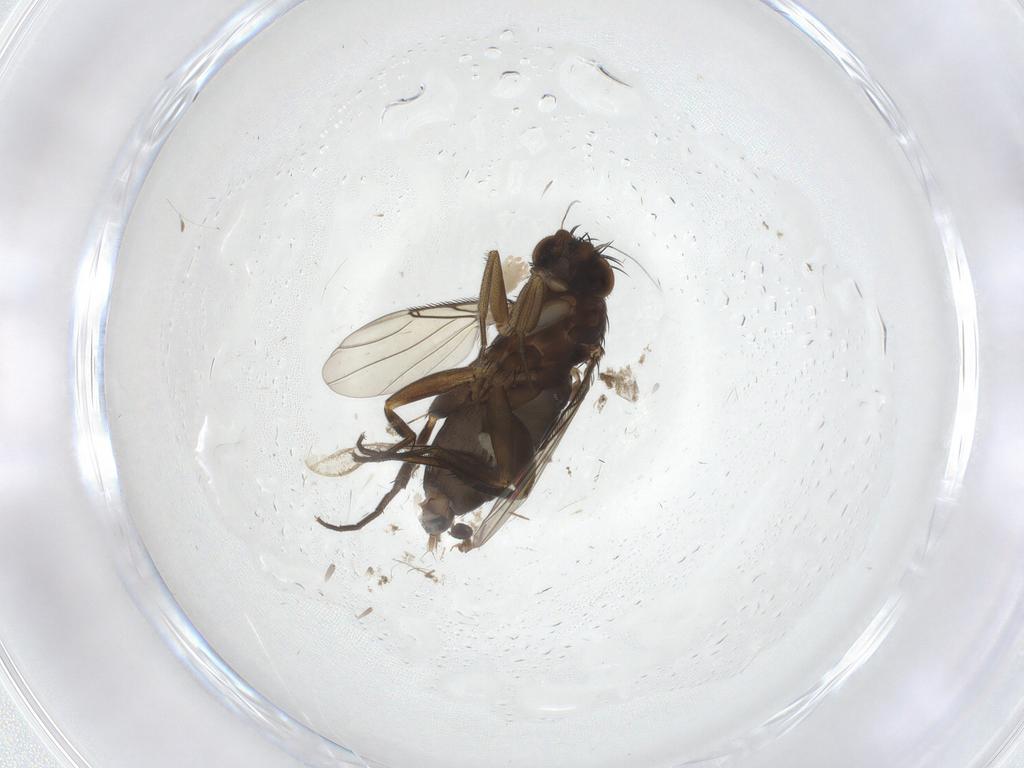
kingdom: Animalia
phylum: Arthropoda
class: Insecta
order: Diptera
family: Phoridae
